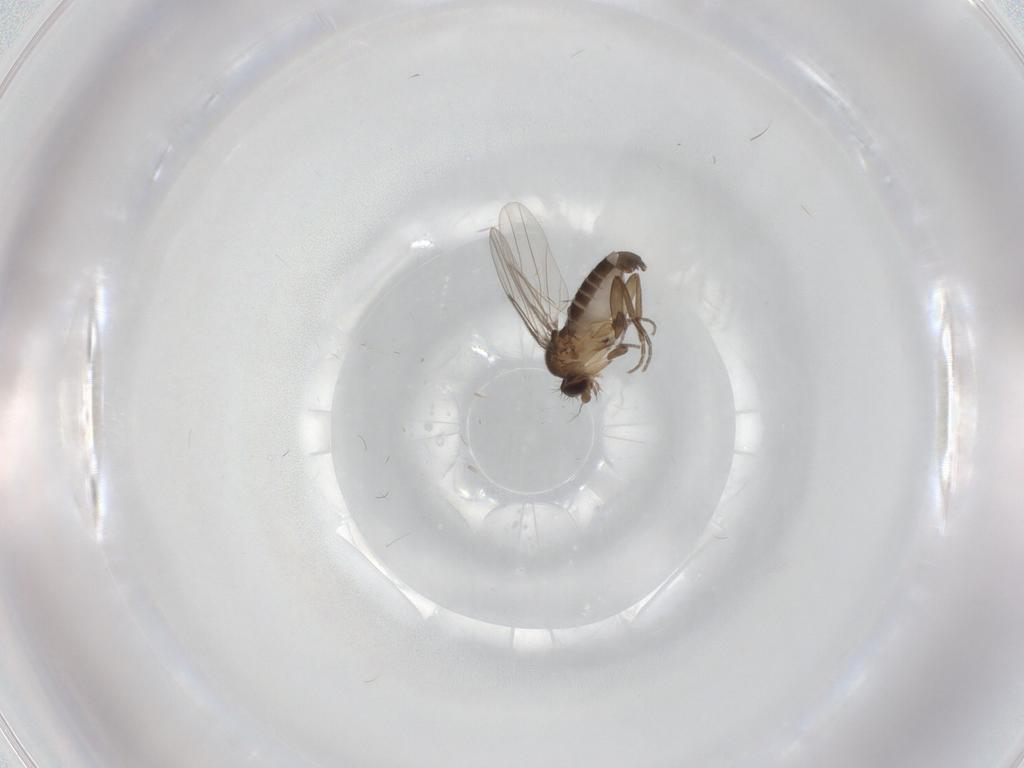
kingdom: Animalia
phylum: Arthropoda
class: Insecta
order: Diptera
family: Phoridae
